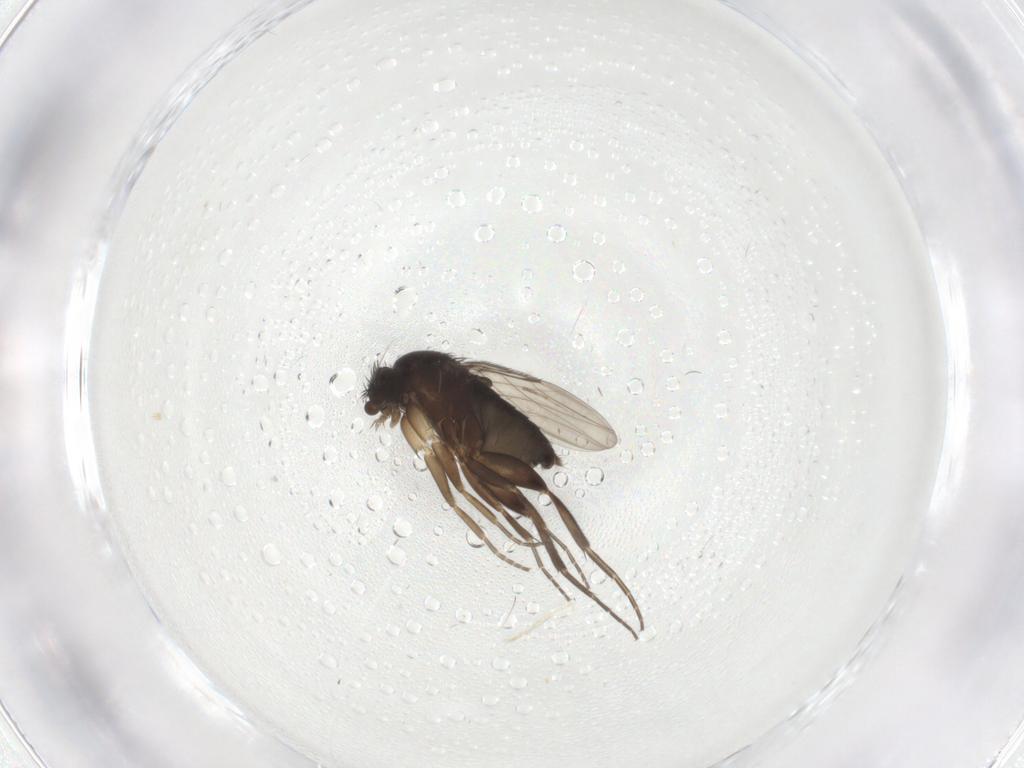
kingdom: Animalia
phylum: Arthropoda
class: Insecta
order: Diptera
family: Phoridae
